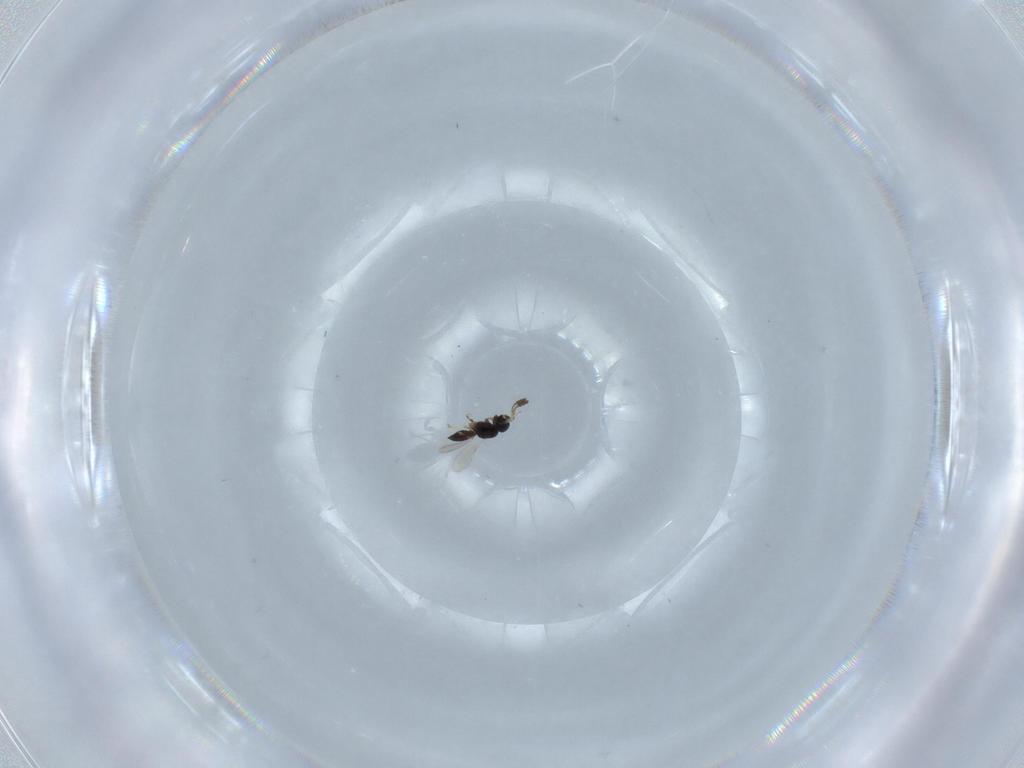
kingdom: Animalia
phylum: Arthropoda
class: Insecta
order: Hymenoptera
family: Scelionidae
